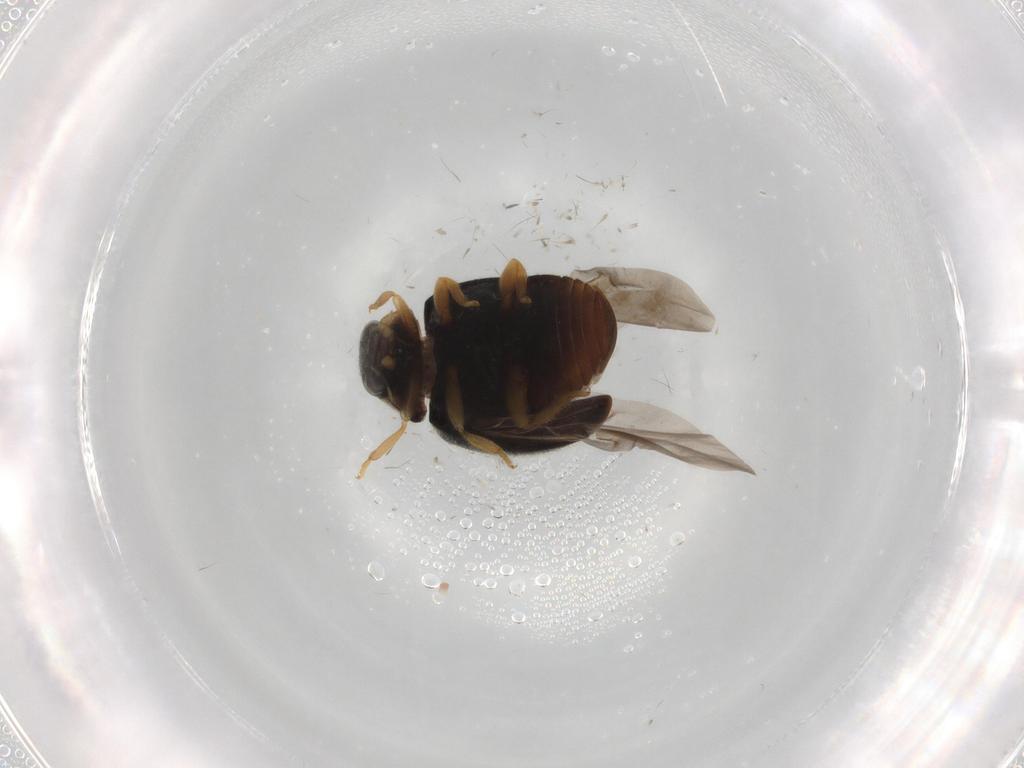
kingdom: Animalia
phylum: Arthropoda
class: Insecta
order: Coleoptera
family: Coccinellidae
